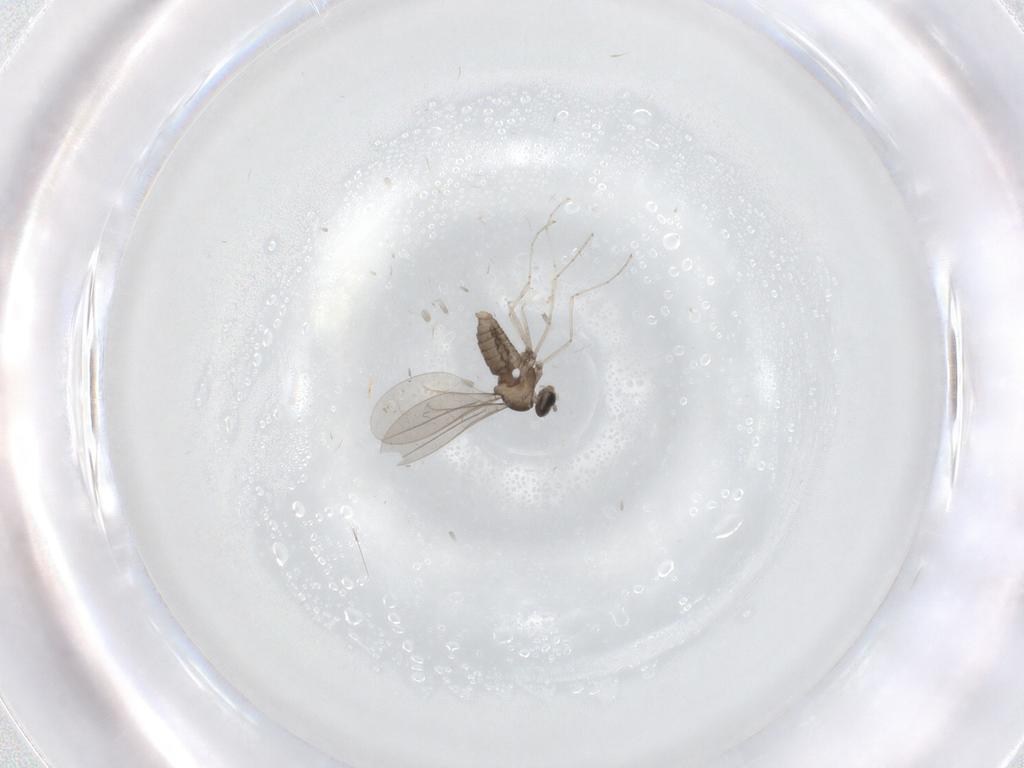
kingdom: Animalia
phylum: Arthropoda
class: Insecta
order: Diptera
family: Cecidomyiidae
